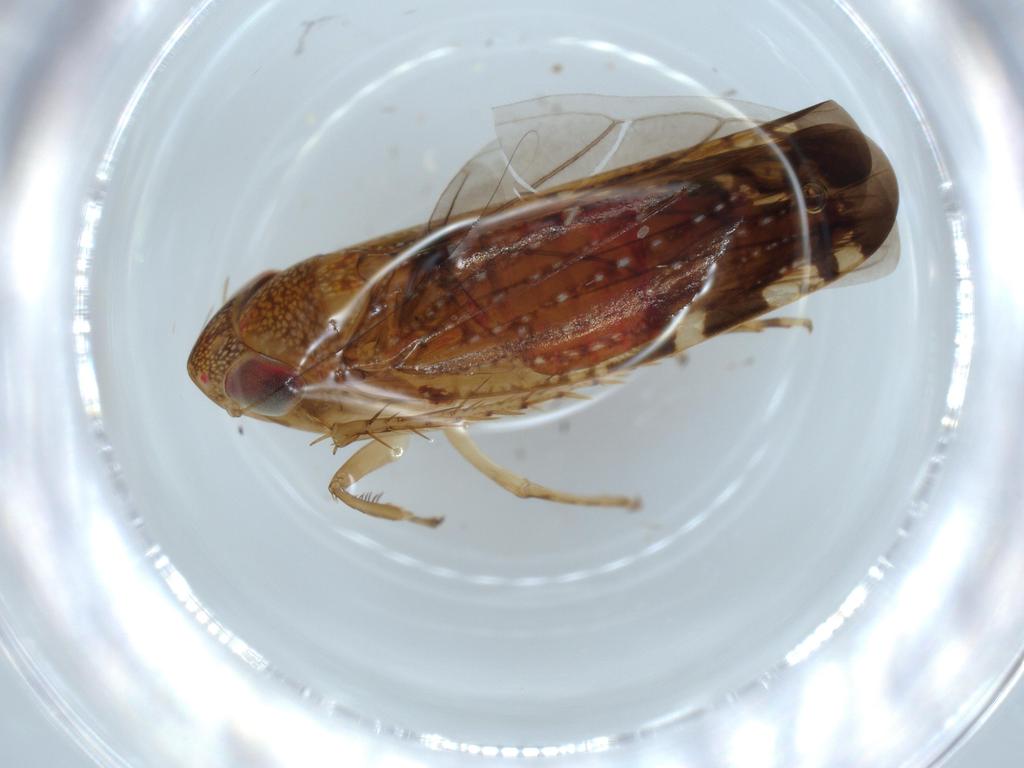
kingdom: Animalia
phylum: Arthropoda
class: Insecta
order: Hemiptera
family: Cicadellidae
